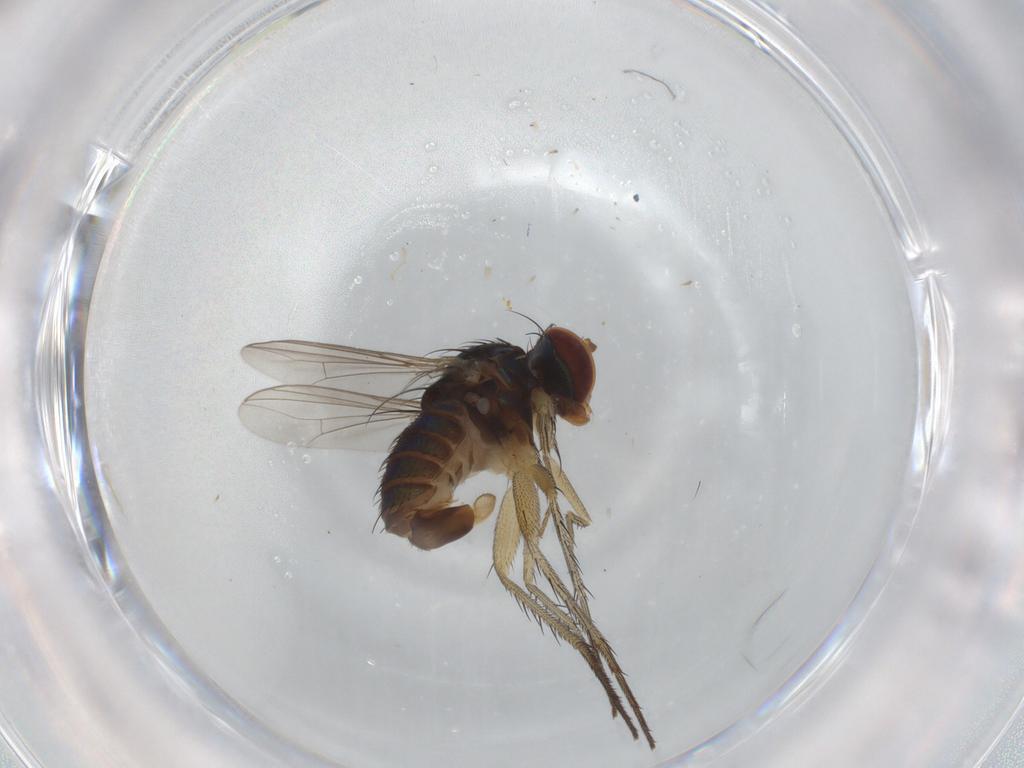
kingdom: Animalia
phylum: Arthropoda
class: Insecta
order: Diptera
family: Dolichopodidae
